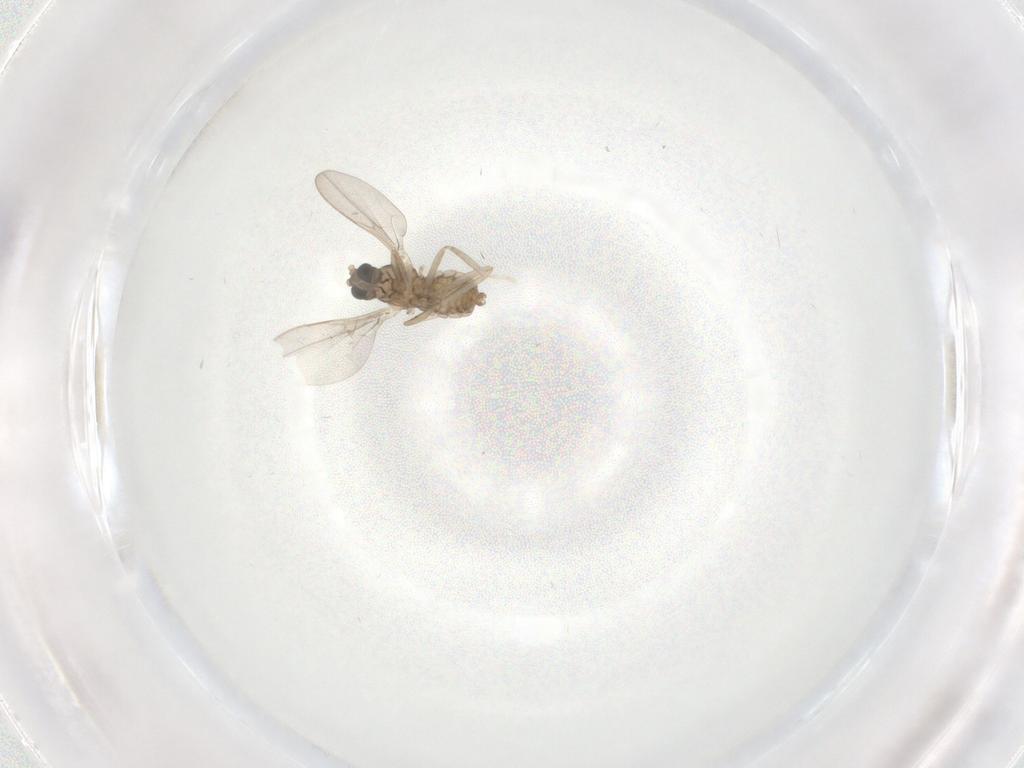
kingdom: Animalia
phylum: Arthropoda
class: Insecta
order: Diptera
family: Cecidomyiidae
